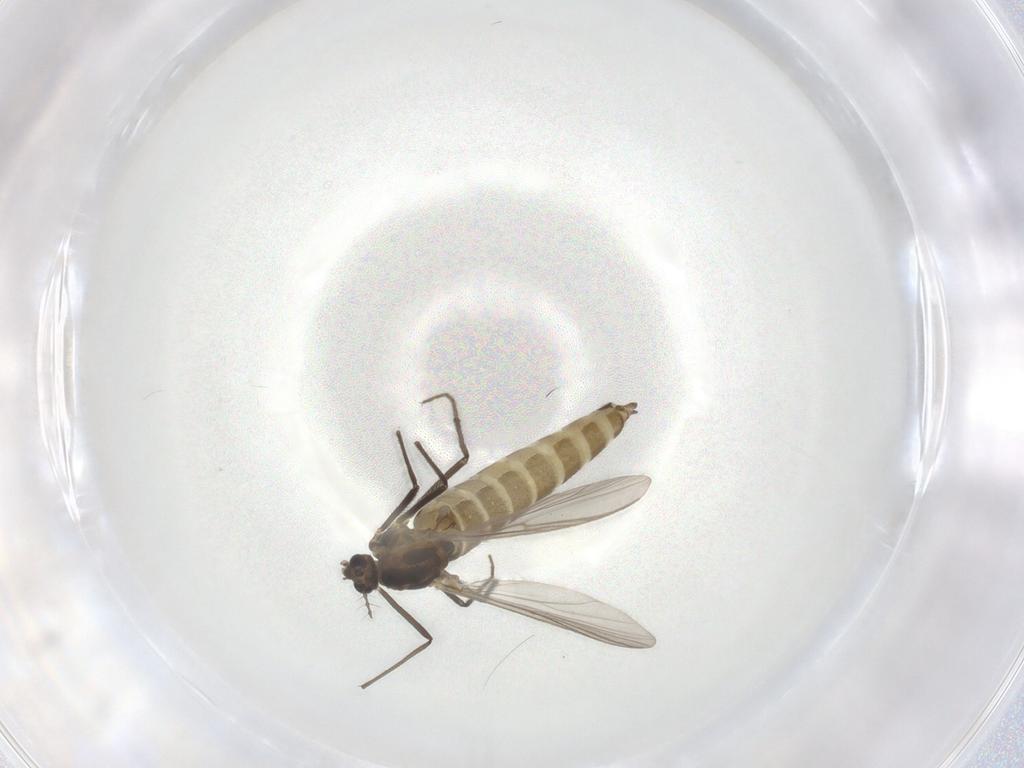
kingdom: Animalia
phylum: Arthropoda
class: Insecta
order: Diptera
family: Chironomidae
